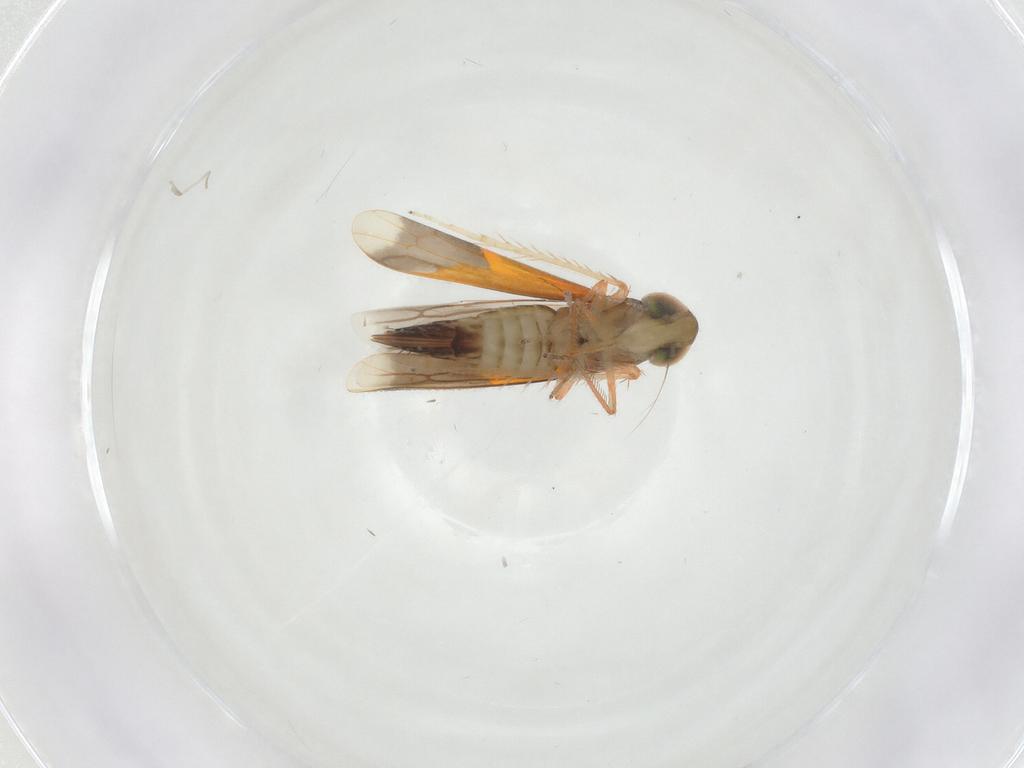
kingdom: Animalia
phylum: Arthropoda
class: Insecta
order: Hemiptera
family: Cicadellidae
